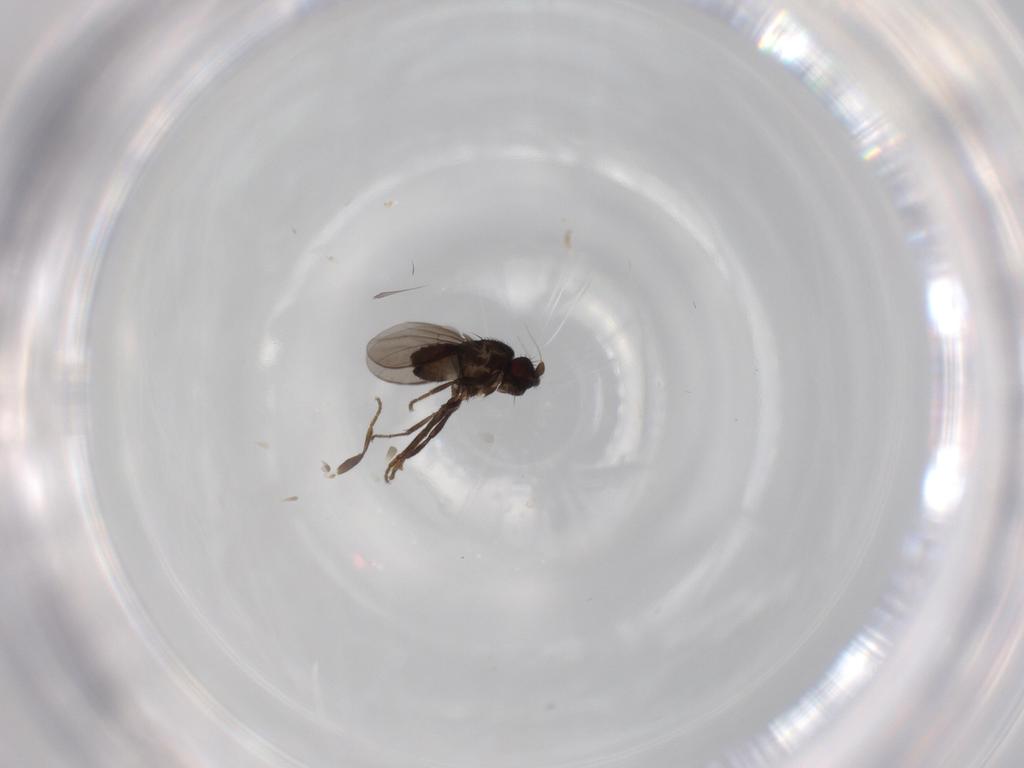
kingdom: Animalia
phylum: Arthropoda
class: Insecta
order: Diptera
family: Sphaeroceridae
